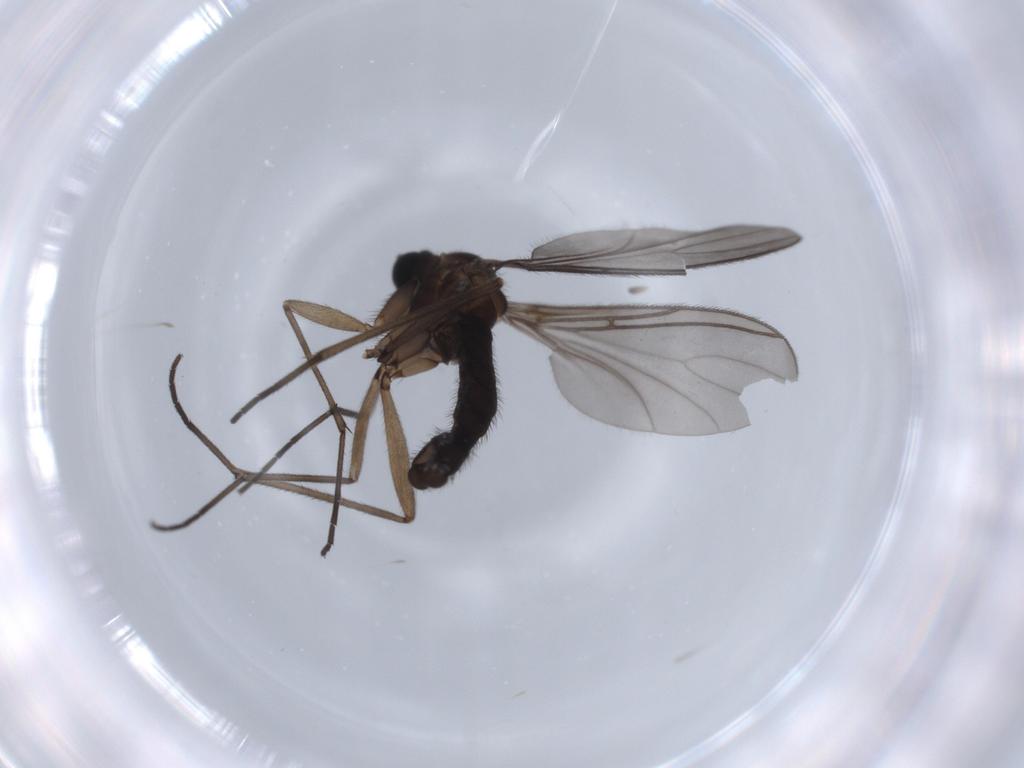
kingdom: Animalia
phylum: Arthropoda
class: Insecta
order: Diptera
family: Sciaridae
